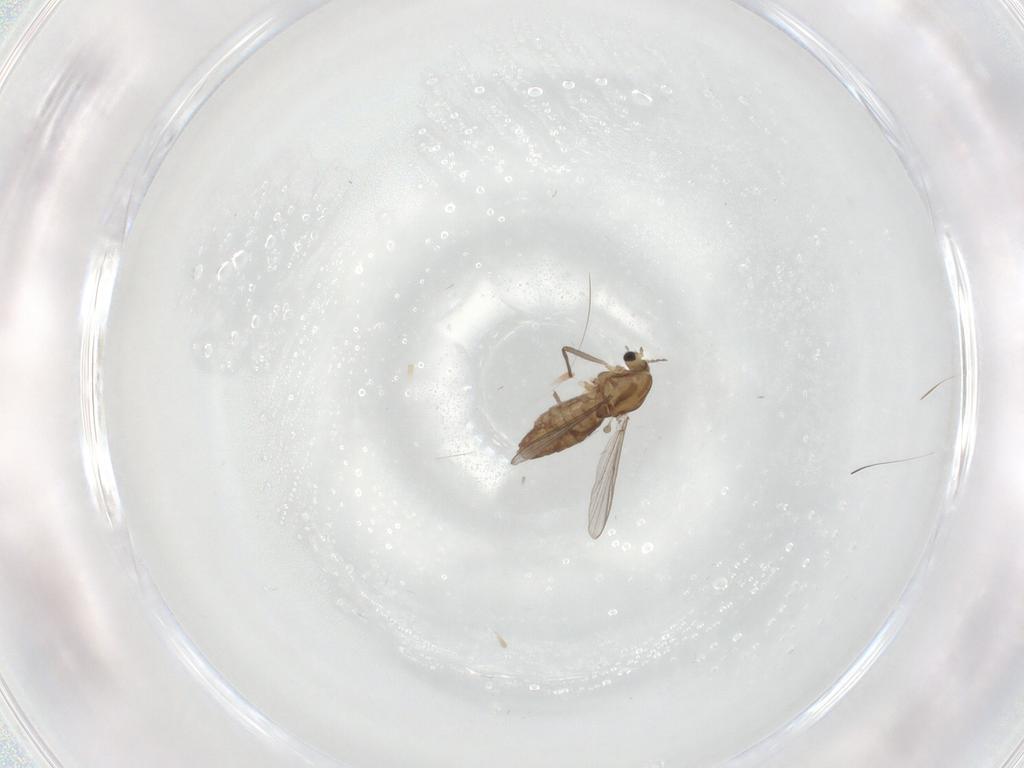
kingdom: Animalia
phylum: Arthropoda
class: Insecta
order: Diptera
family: Chironomidae
